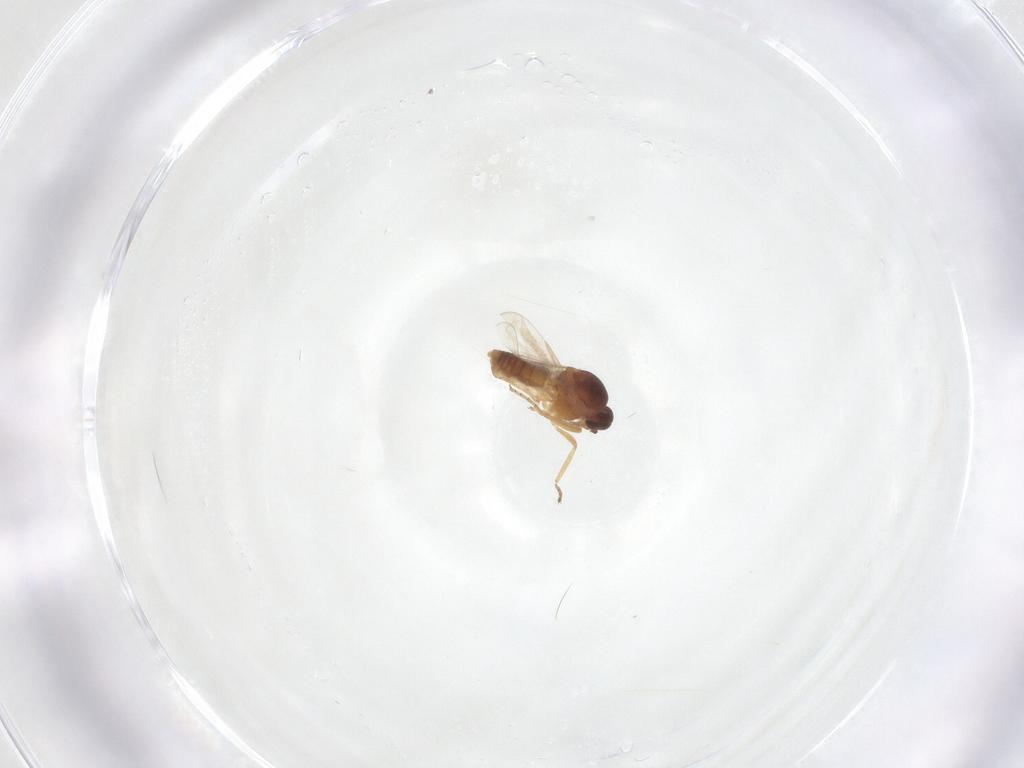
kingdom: Animalia
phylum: Arthropoda
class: Insecta
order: Diptera
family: Ceratopogonidae
